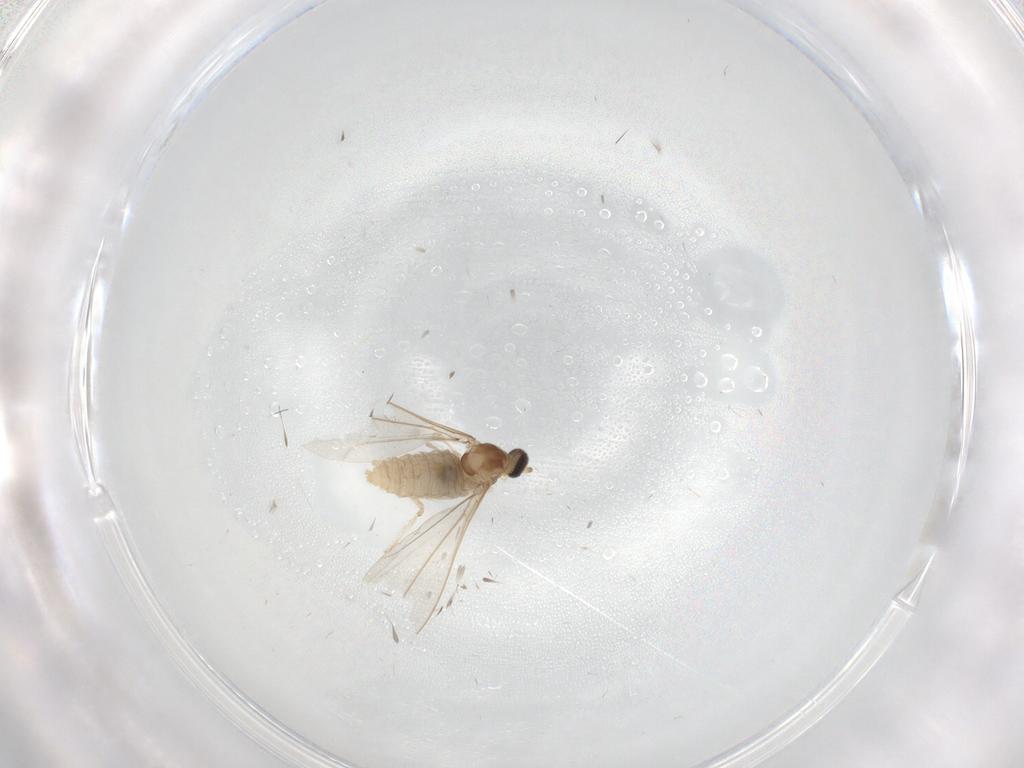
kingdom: Animalia
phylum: Arthropoda
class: Insecta
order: Diptera
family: Cecidomyiidae
